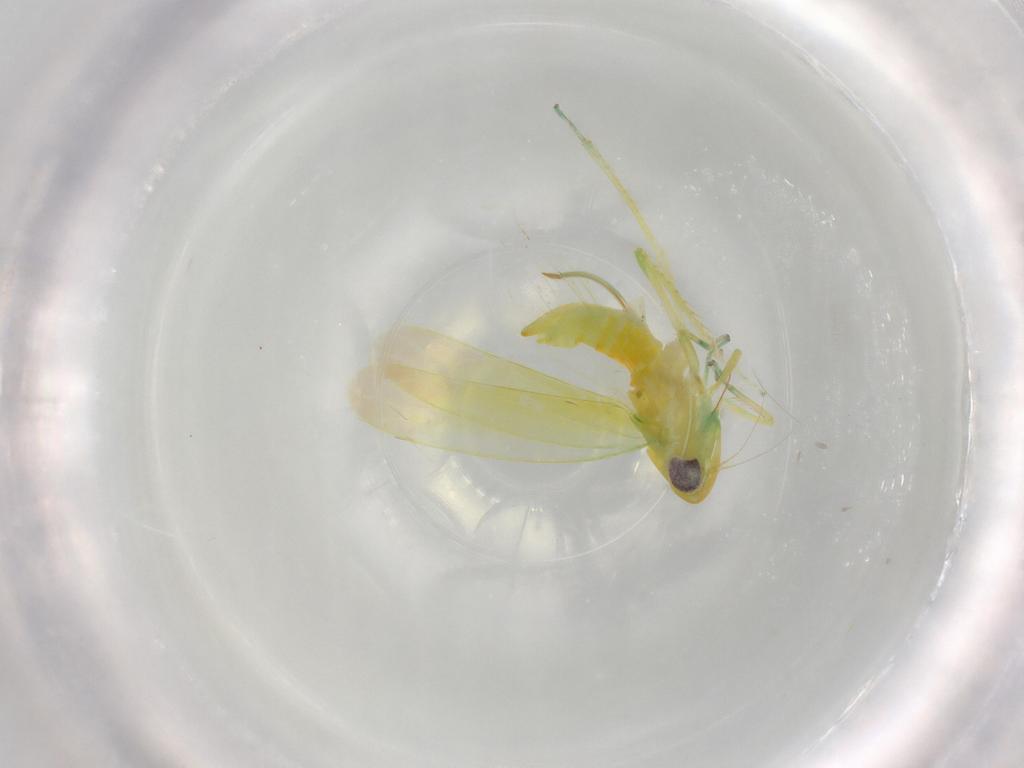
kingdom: Animalia
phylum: Arthropoda
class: Insecta
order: Hemiptera
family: Cicadellidae
